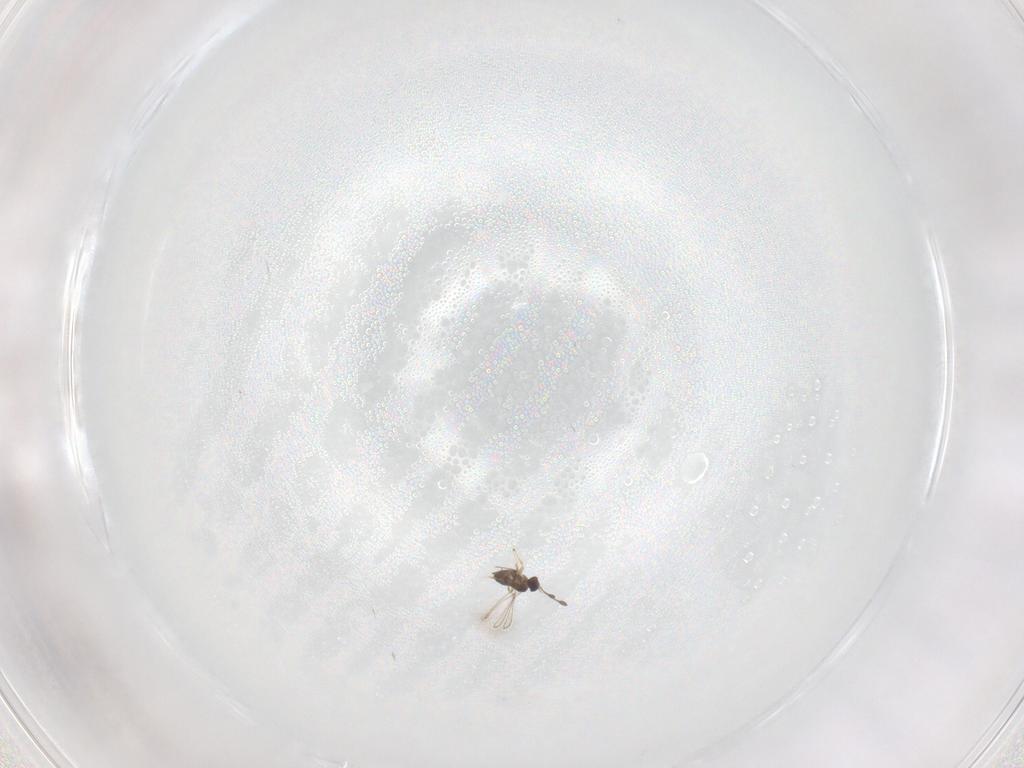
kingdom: Animalia
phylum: Arthropoda
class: Insecta
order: Hymenoptera
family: Scelionidae
